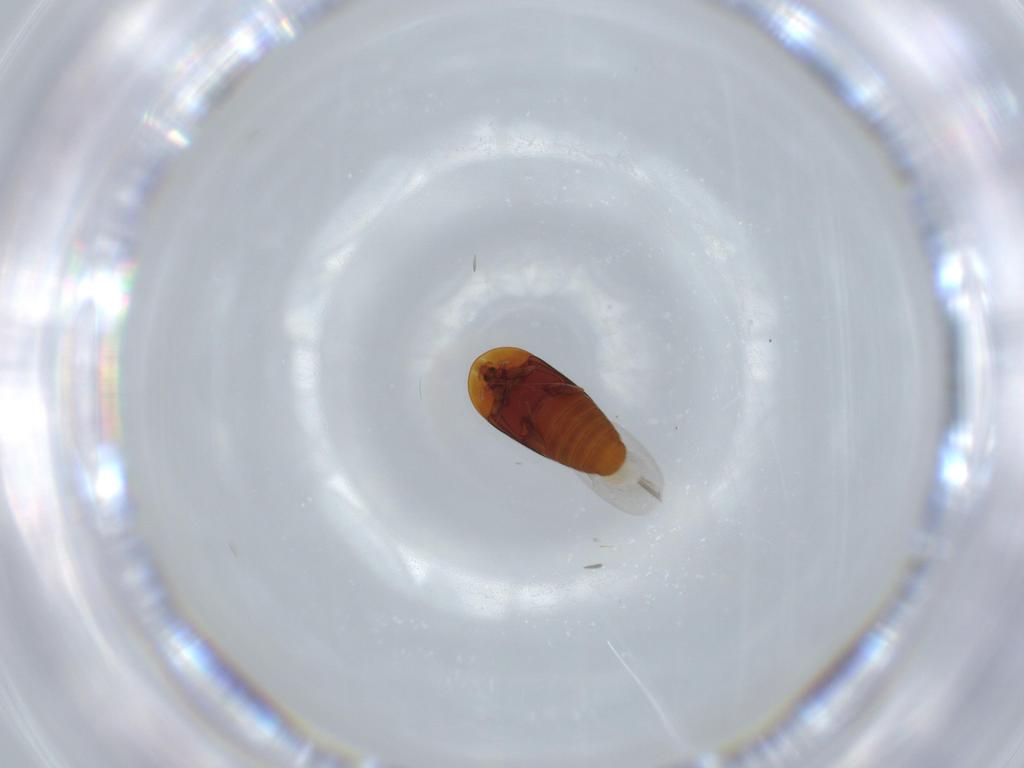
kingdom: Animalia
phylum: Arthropoda
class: Insecta
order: Coleoptera
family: Corylophidae
